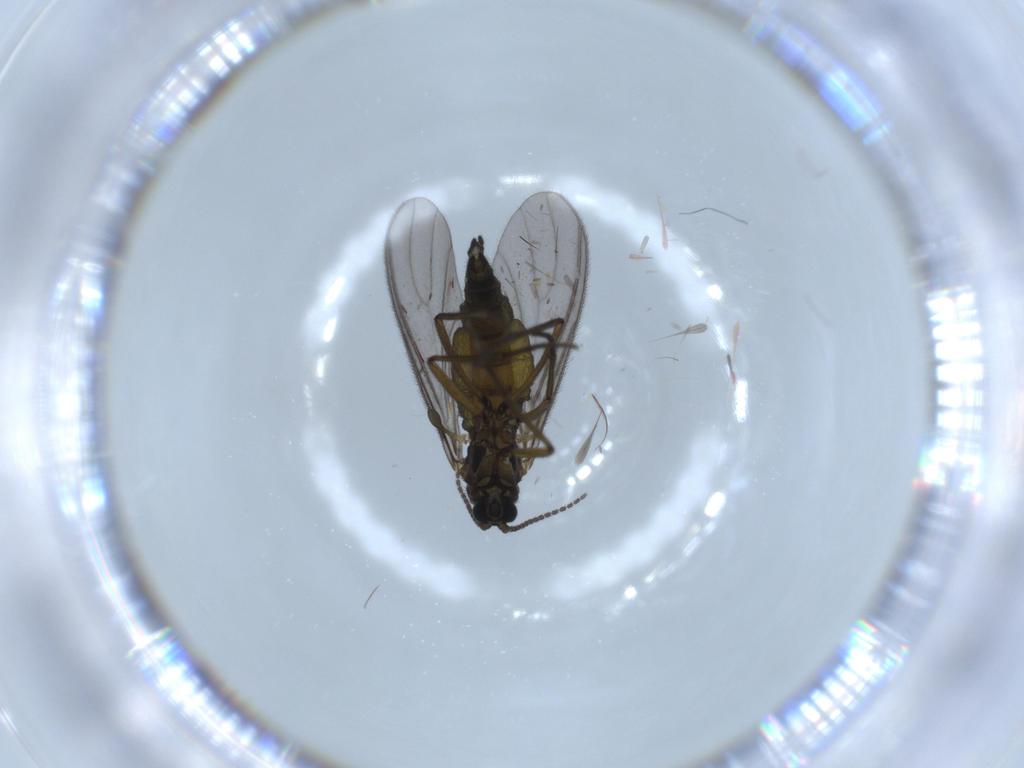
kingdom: Animalia
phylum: Arthropoda
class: Insecta
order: Diptera
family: Sciaridae
